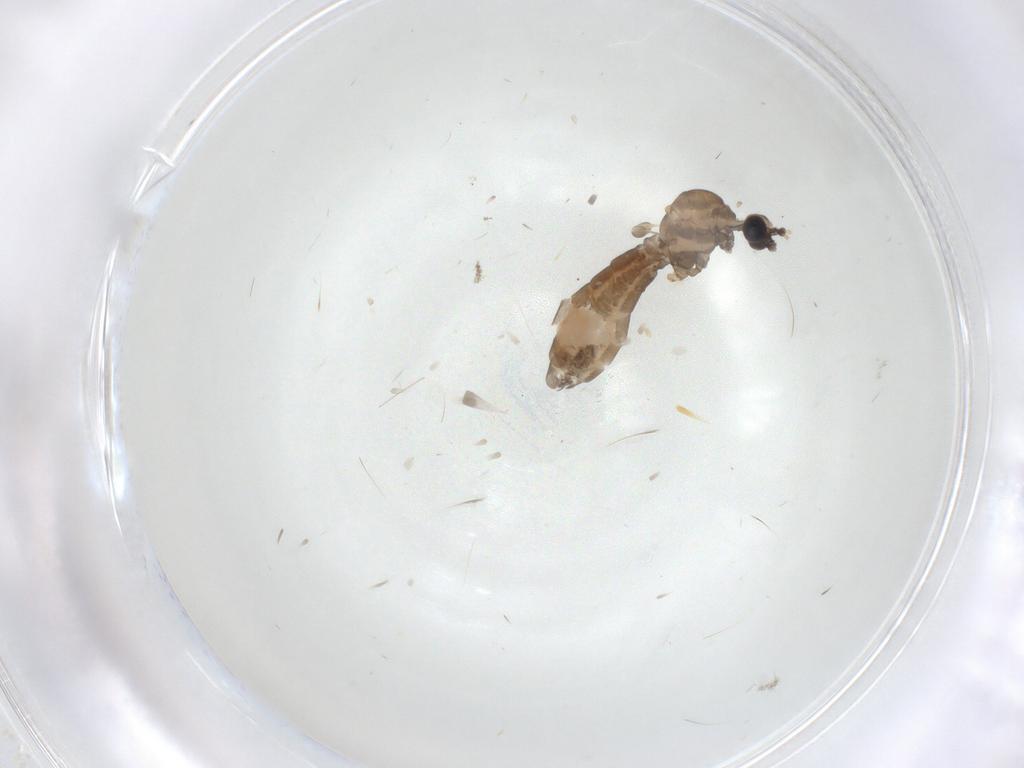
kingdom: Animalia
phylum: Arthropoda
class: Insecta
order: Diptera
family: Limoniidae
